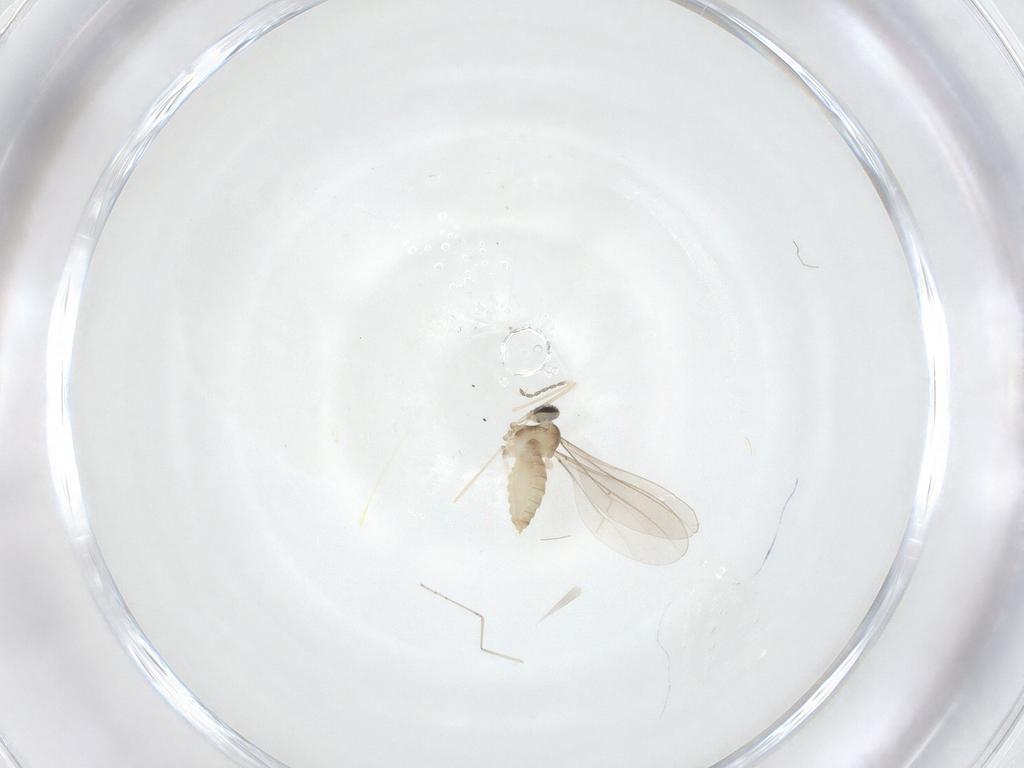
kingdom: Animalia
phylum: Arthropoda
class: Insecta
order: Diptera
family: Cecidomyiidae
